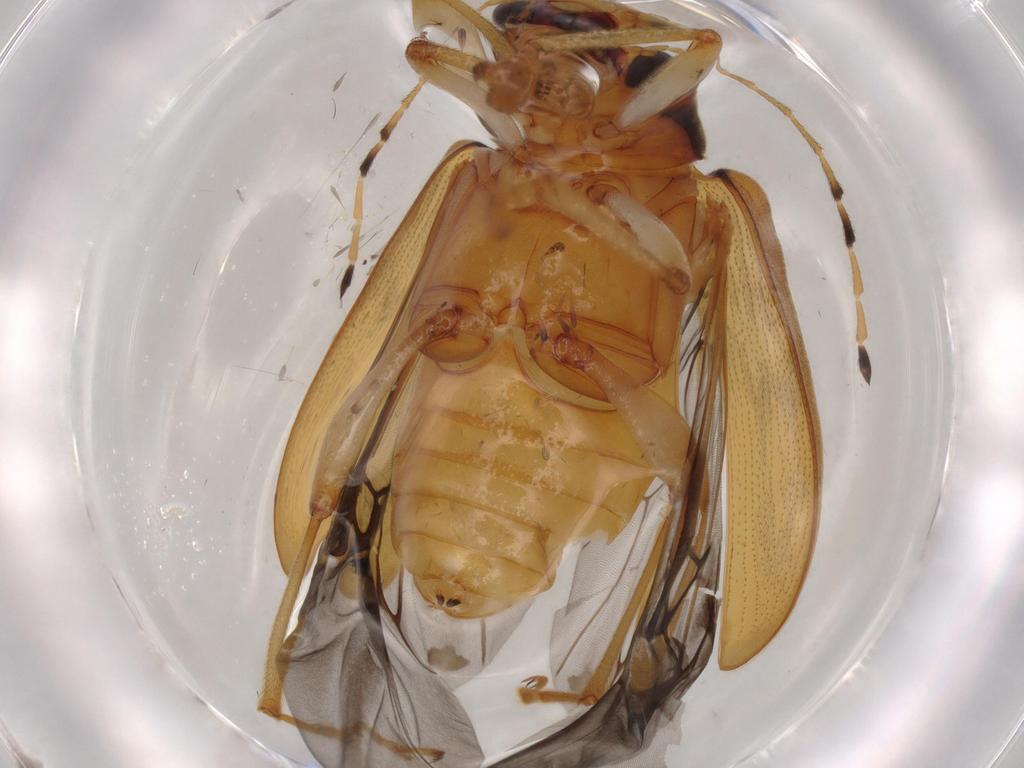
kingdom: Animalia
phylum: Arthropoda
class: Insecta
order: Coleoptera
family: Chrysomelidae
